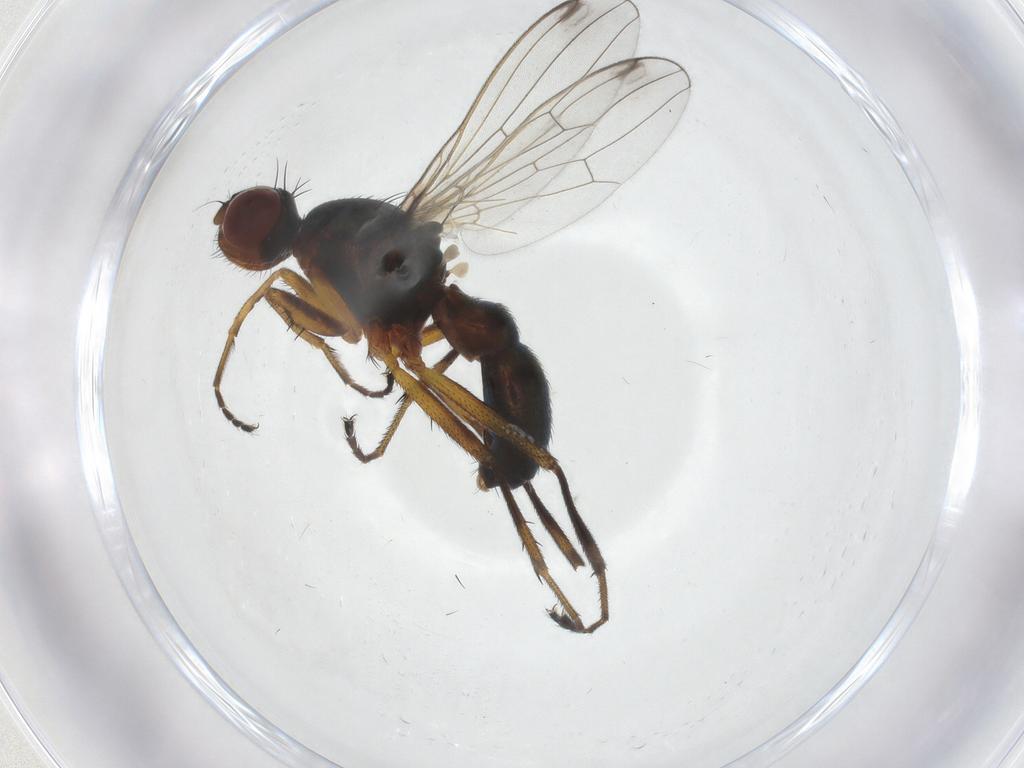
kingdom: Animalia
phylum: Arthropoda
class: Insecta
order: Diptera
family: Sepsidae
